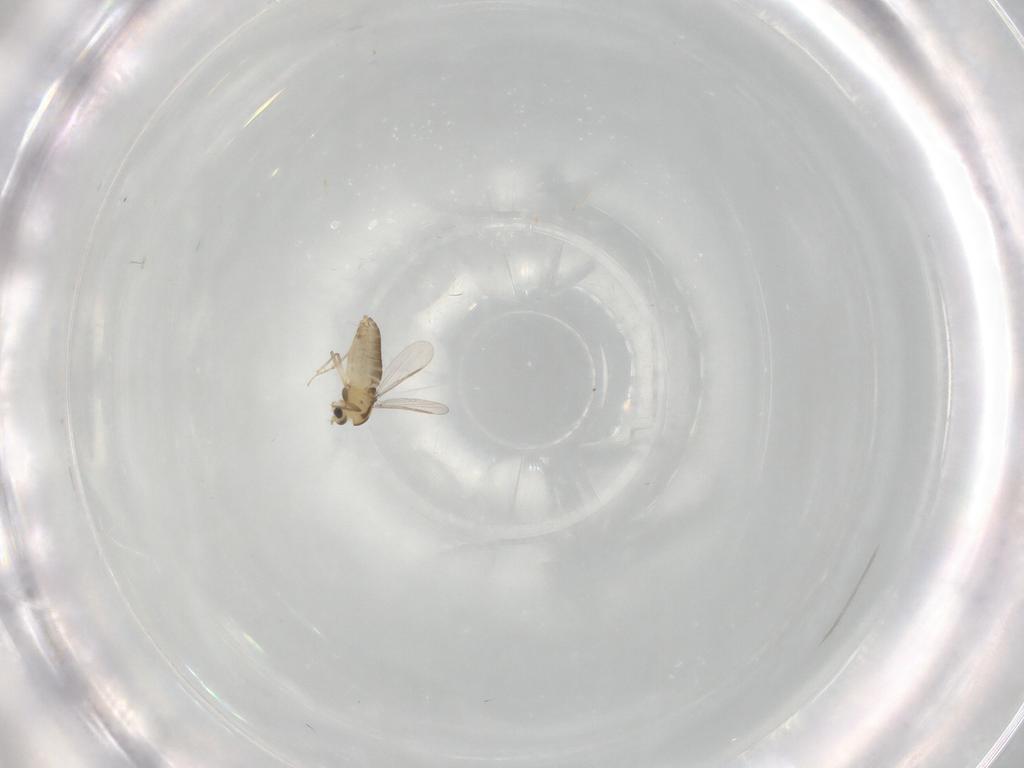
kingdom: Animalia
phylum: Arthropoda
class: Insecta
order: Diptera
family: Chironomidae
